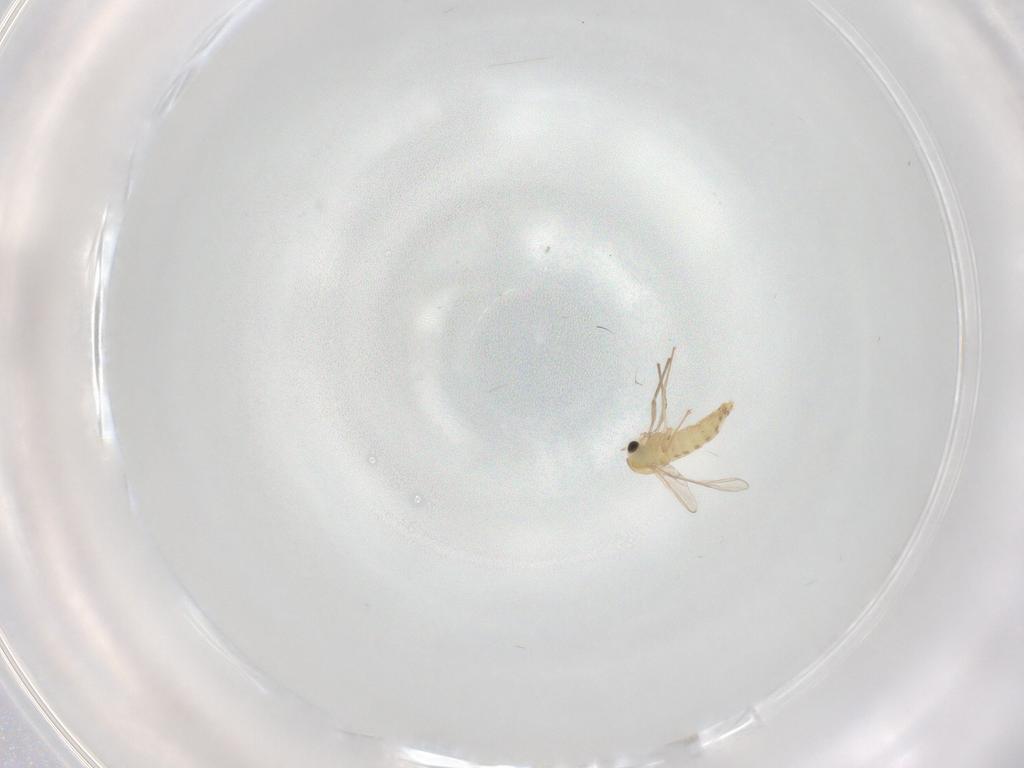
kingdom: Animalia
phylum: Arthropoda
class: Insecta
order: Diptera
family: Chironomidae
